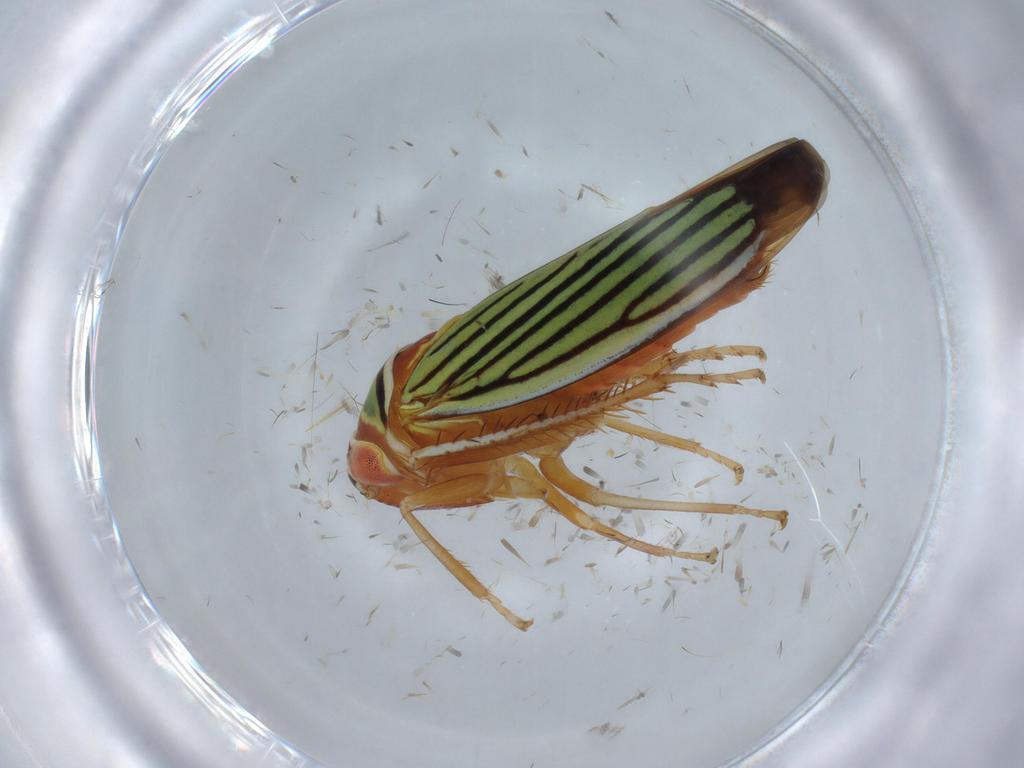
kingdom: Animalia
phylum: Arthropoda
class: Insecta
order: Hemiptera
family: Cicadellidae
